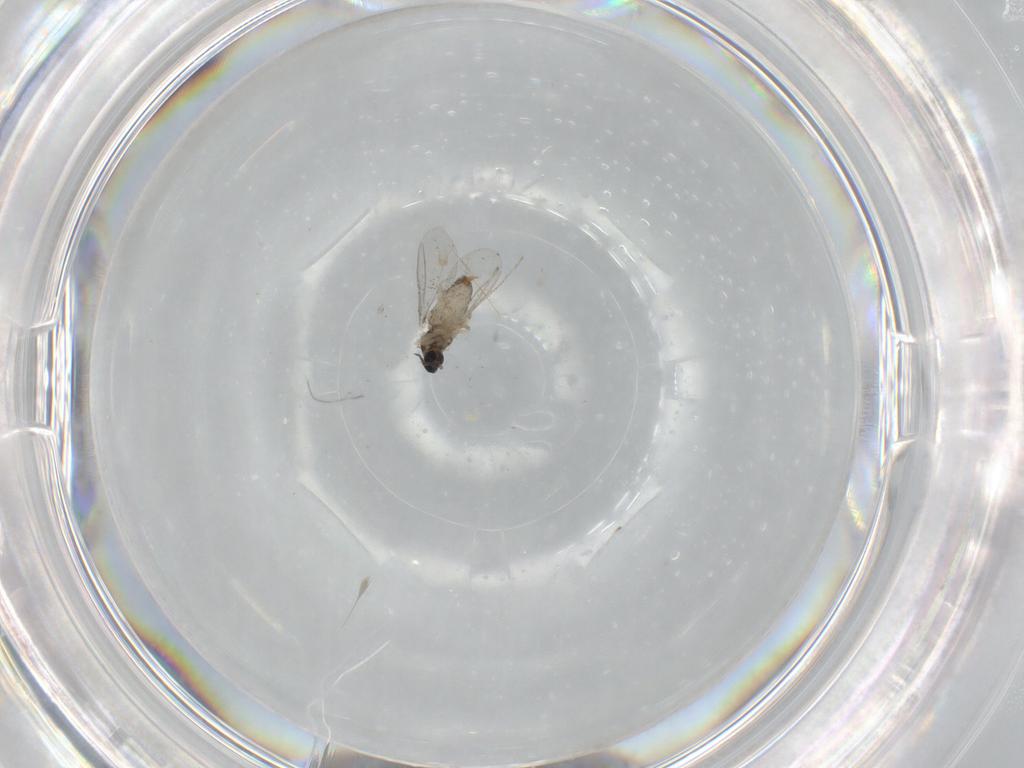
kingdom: Animalia
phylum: Arthropoda
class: Insecta
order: Diptera
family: Cecidomyiidae
